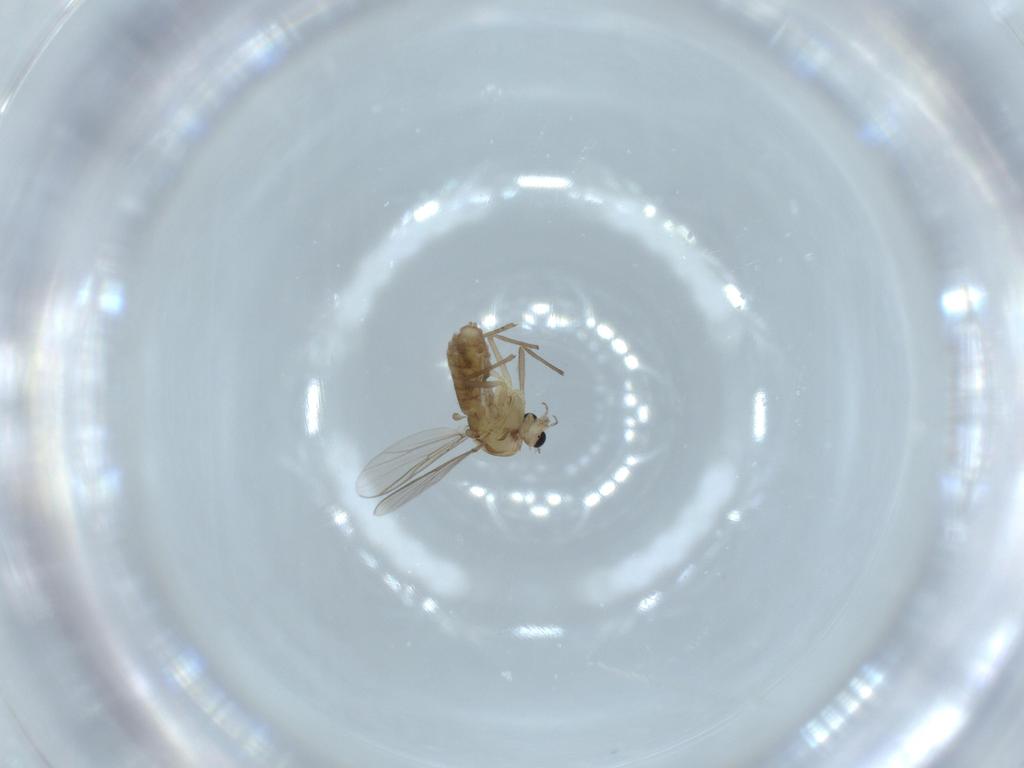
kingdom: Animalia
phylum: Arthropoda
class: Insecta
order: Diptera
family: Chironomidae
